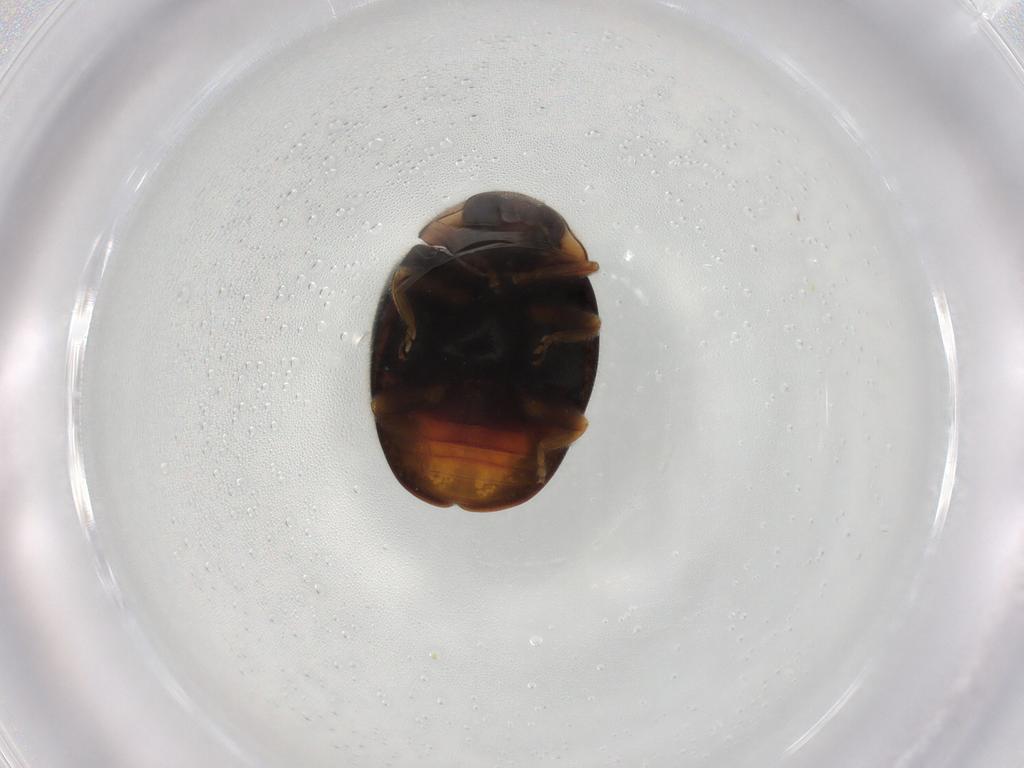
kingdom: Animalia
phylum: Arthropoda
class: Insecta
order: Coleoptera
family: Coccinellidae
